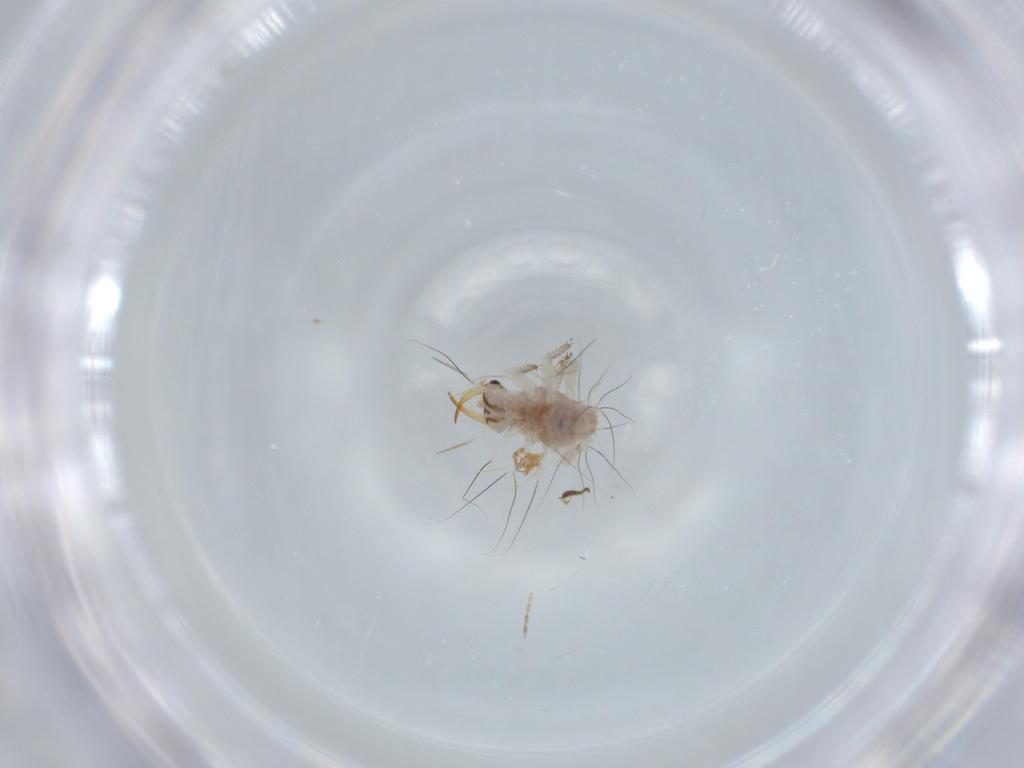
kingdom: Animalia
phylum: Arthropoda
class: Insecta
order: Neuroptera
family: Chrysopidae
